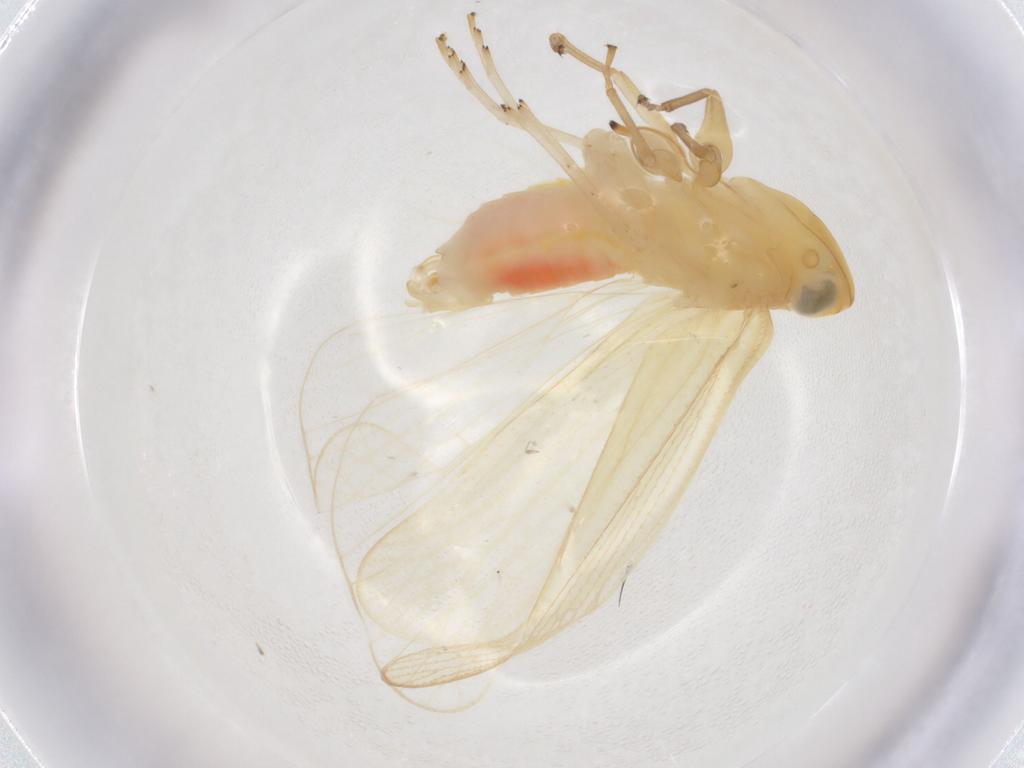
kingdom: Animalia
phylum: Arthropoda
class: Insecta
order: Hemiptera
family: Cixiidae
